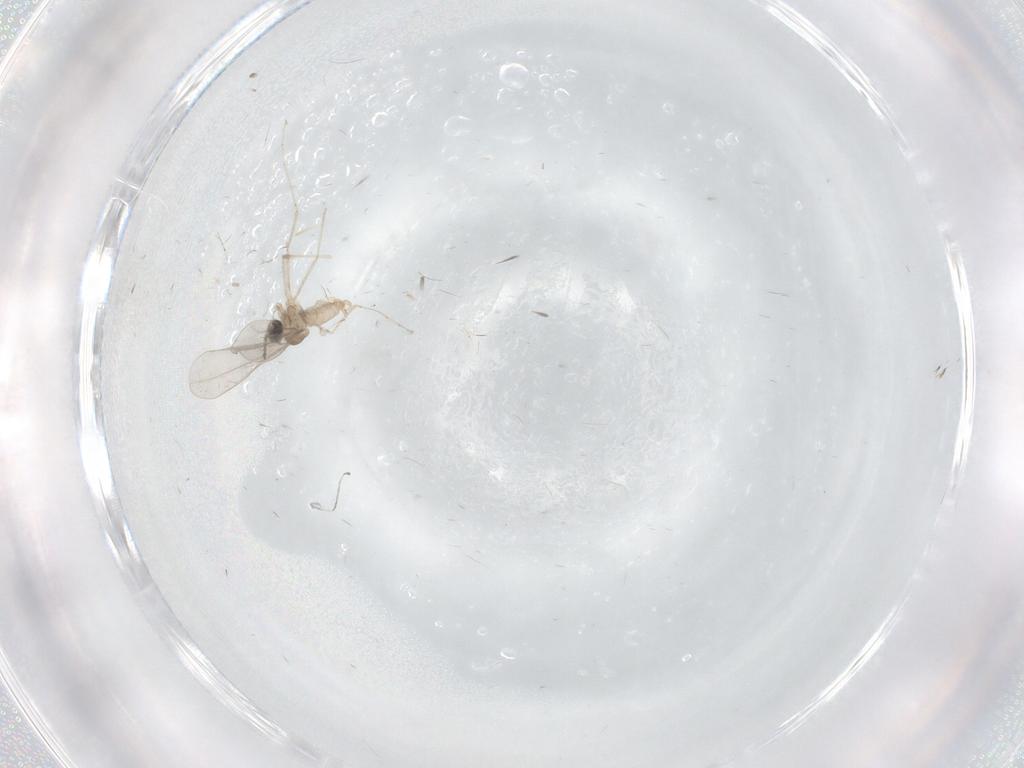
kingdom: Animalia
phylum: Arthropoda
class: Insecta
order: Diptera
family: Cecidomyiidae
